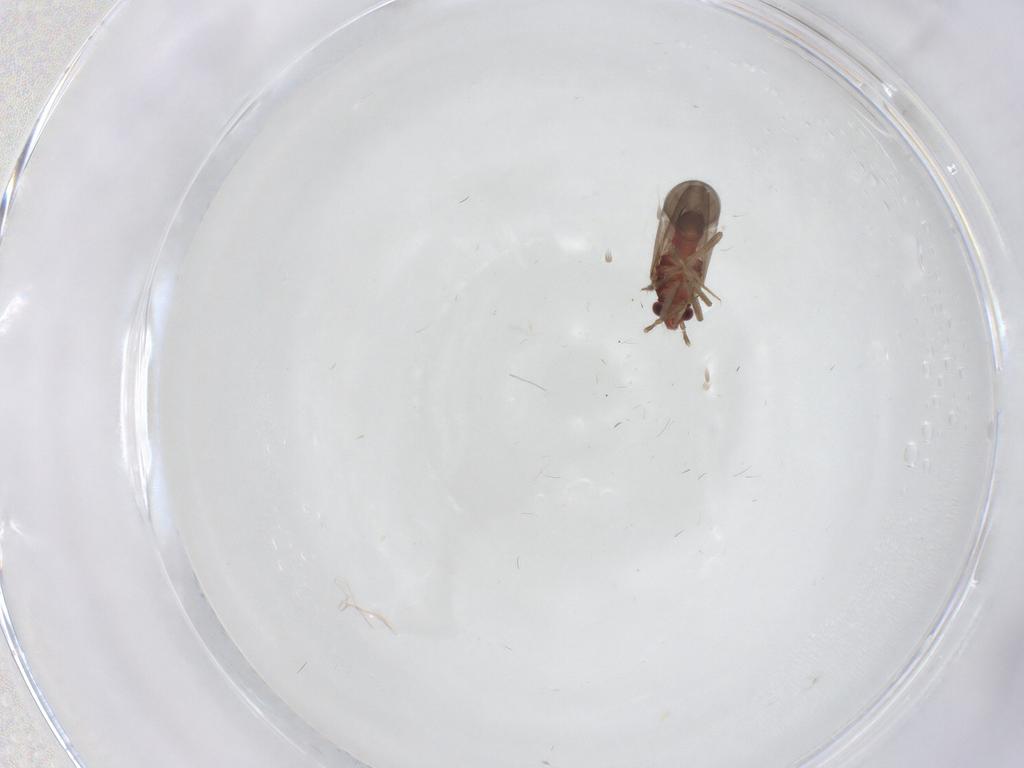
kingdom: Animalia
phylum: Arthropoda
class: Insecta
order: Hemiptera
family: Ceratocombidae
